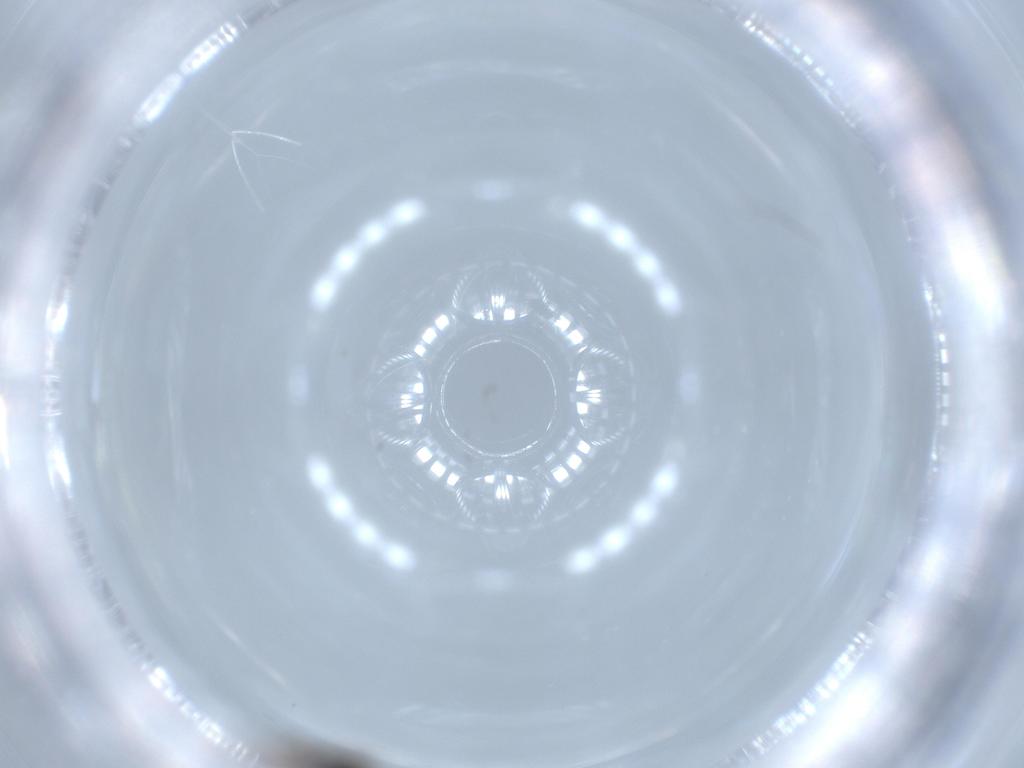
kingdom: Animalia
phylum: Arthropoda
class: Insecta
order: Hymenoptera
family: Scelionidae
